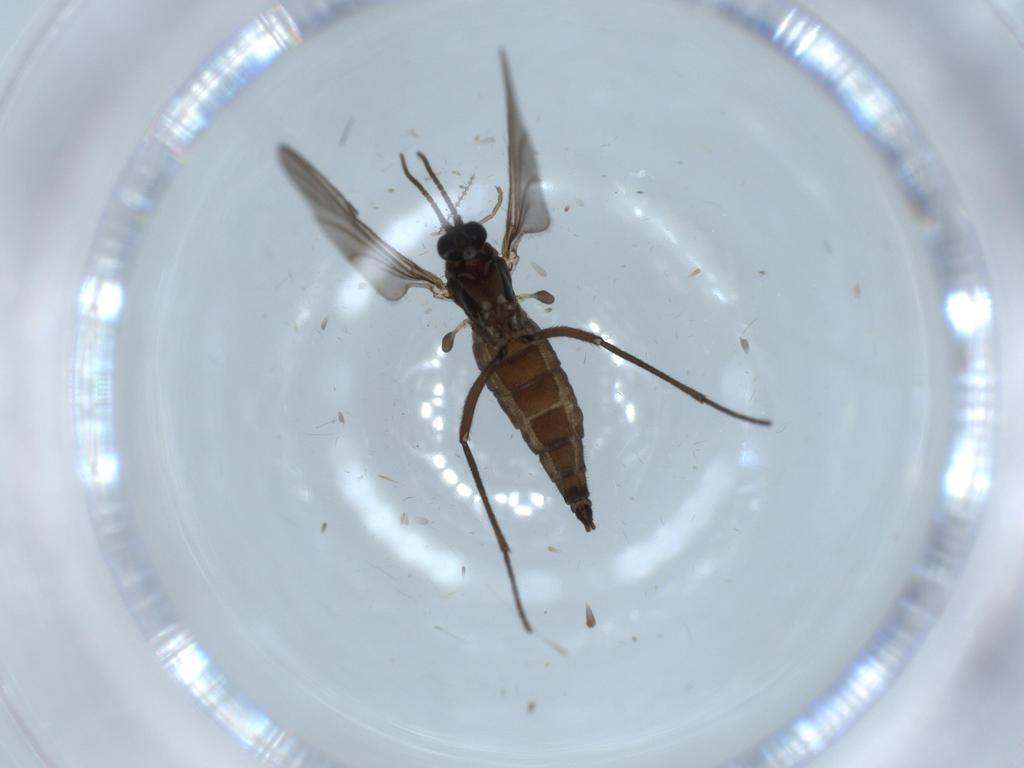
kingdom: Animalia
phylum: Arthropoda
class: Insecta
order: Diptera
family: Sciaridae
